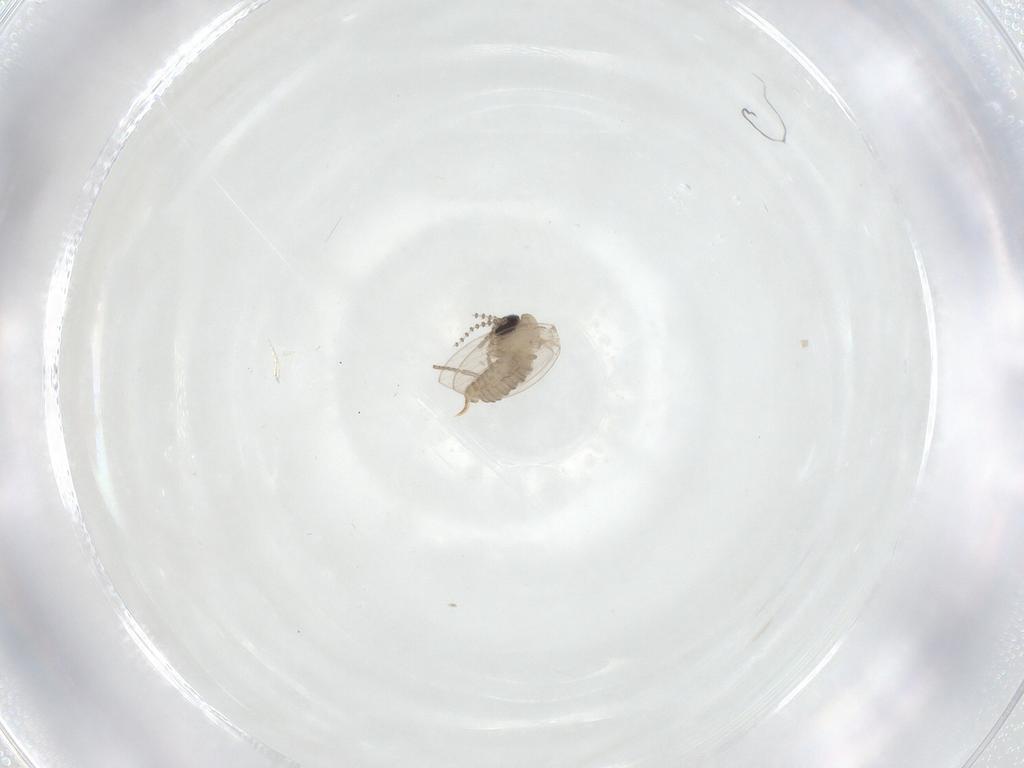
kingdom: Animalia
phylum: Arthropoda
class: Insecta
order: Diptera
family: Psychodidae
